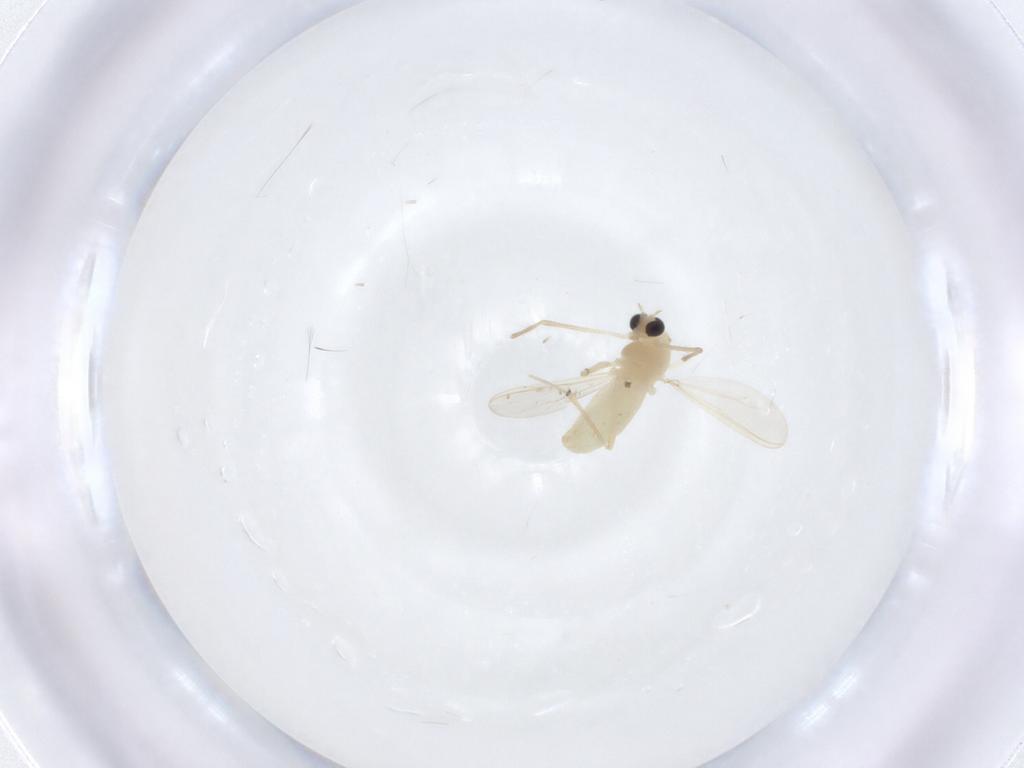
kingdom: Animalia
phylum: Arthropoda
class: Insecta
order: Diptera
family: Chironomidae
